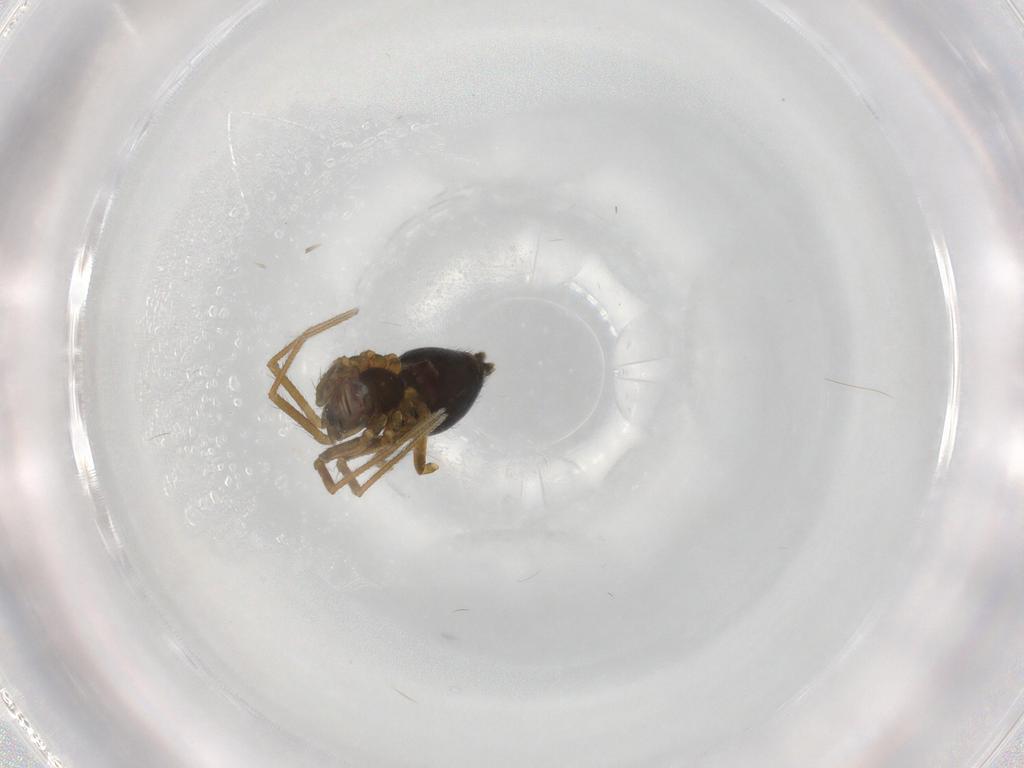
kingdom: Animalia
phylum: Arthropoda
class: Arachnida
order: Araneae
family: Linyphiidae
